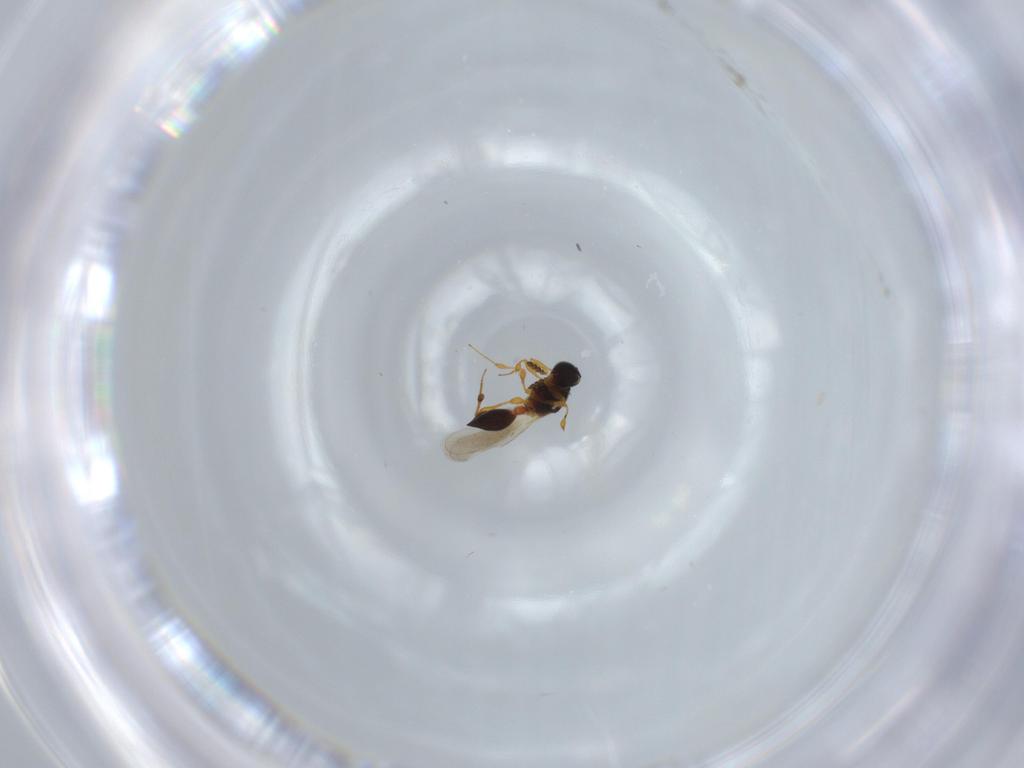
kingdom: Animalia
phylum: Arthropoda
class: Insecta
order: Hymenoptera
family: Platygastridae
